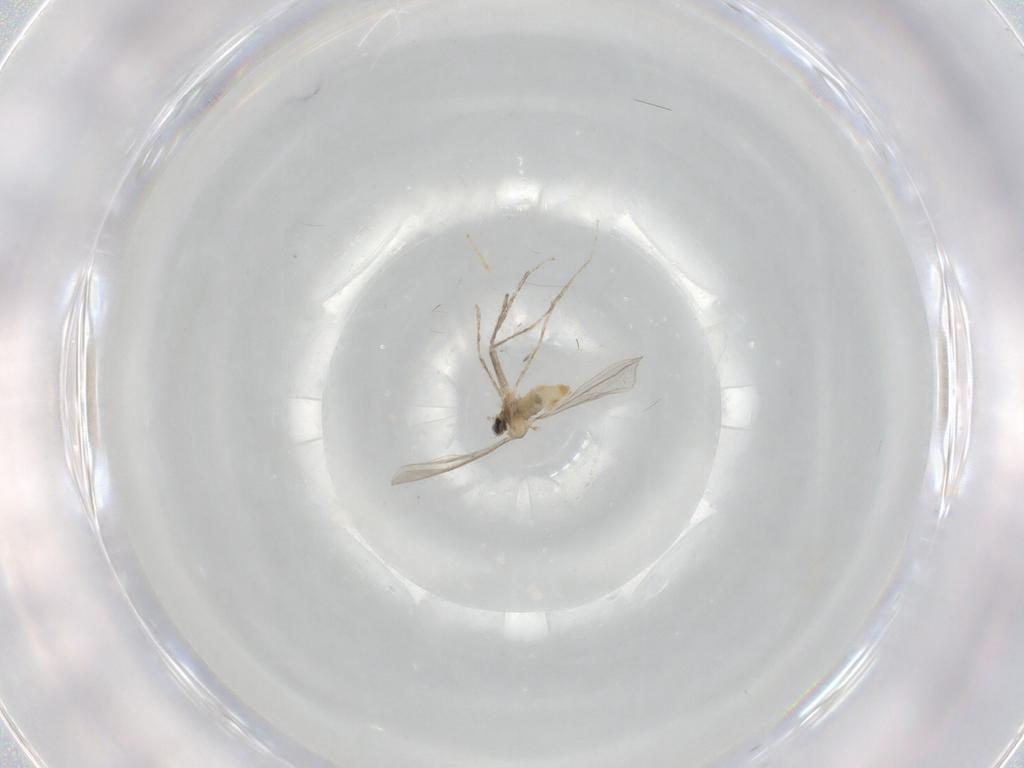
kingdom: Animalia
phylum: Arthropoda
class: Insecta
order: Diptera
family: Cecidomyiidae
